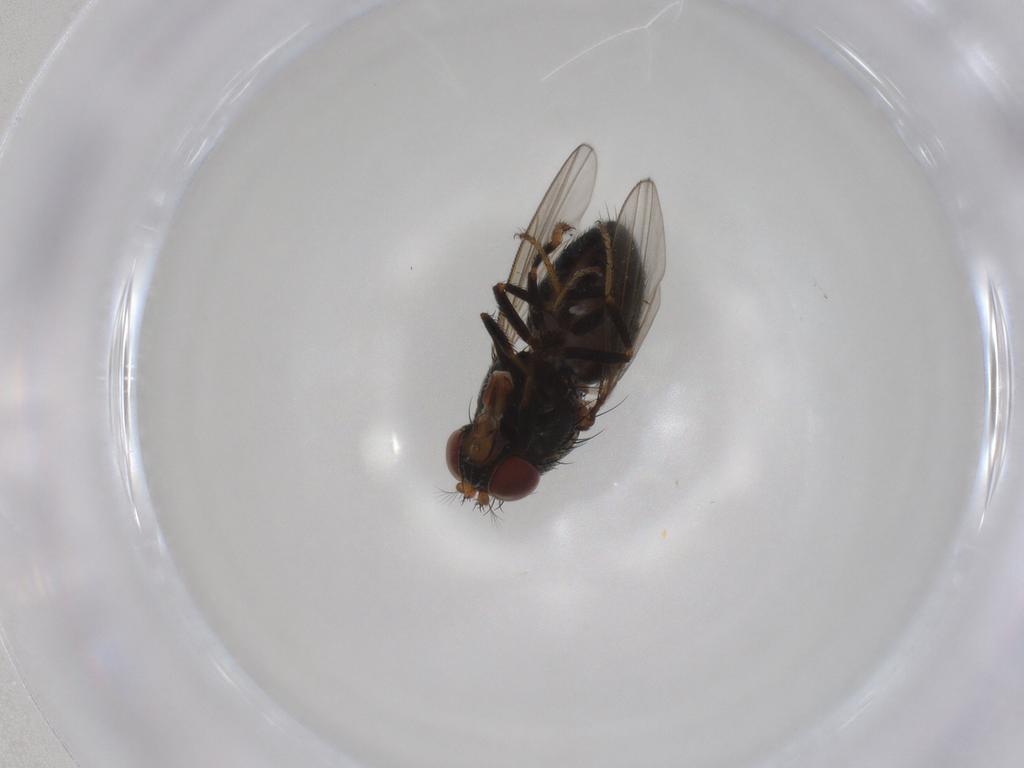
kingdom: Animalia
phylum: Arthropoda
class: Insecta
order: Diptera
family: Ephydridae
